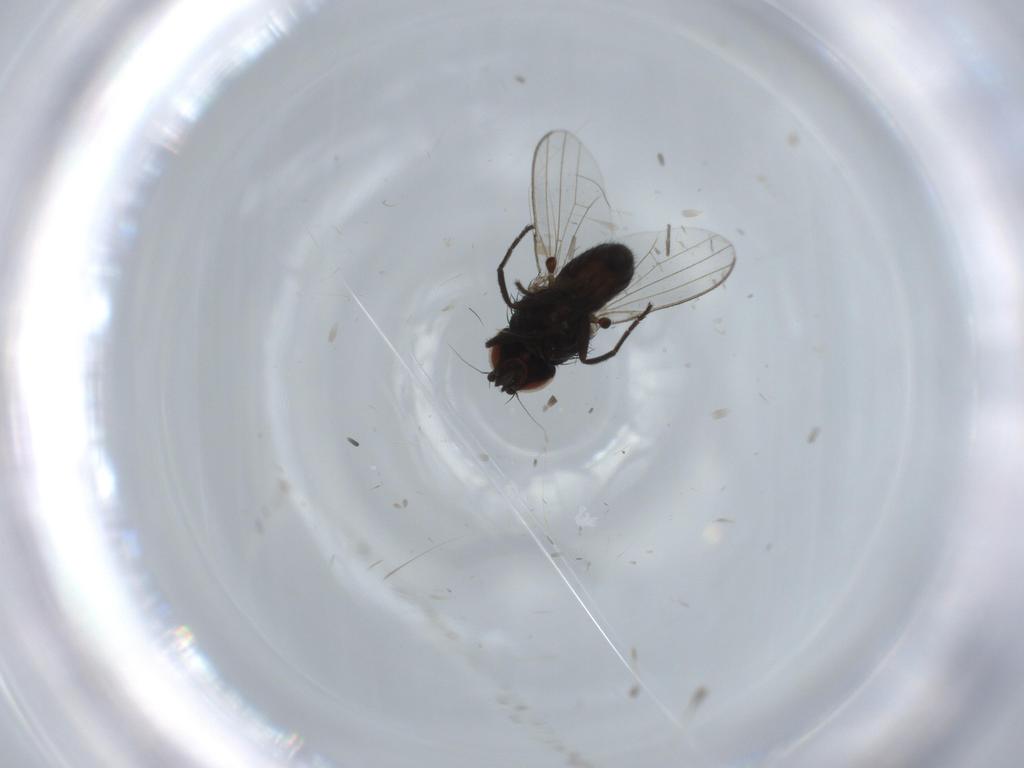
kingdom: Animalia
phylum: Arthropoda
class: Insecta
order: Diptera
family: Milichiidae
